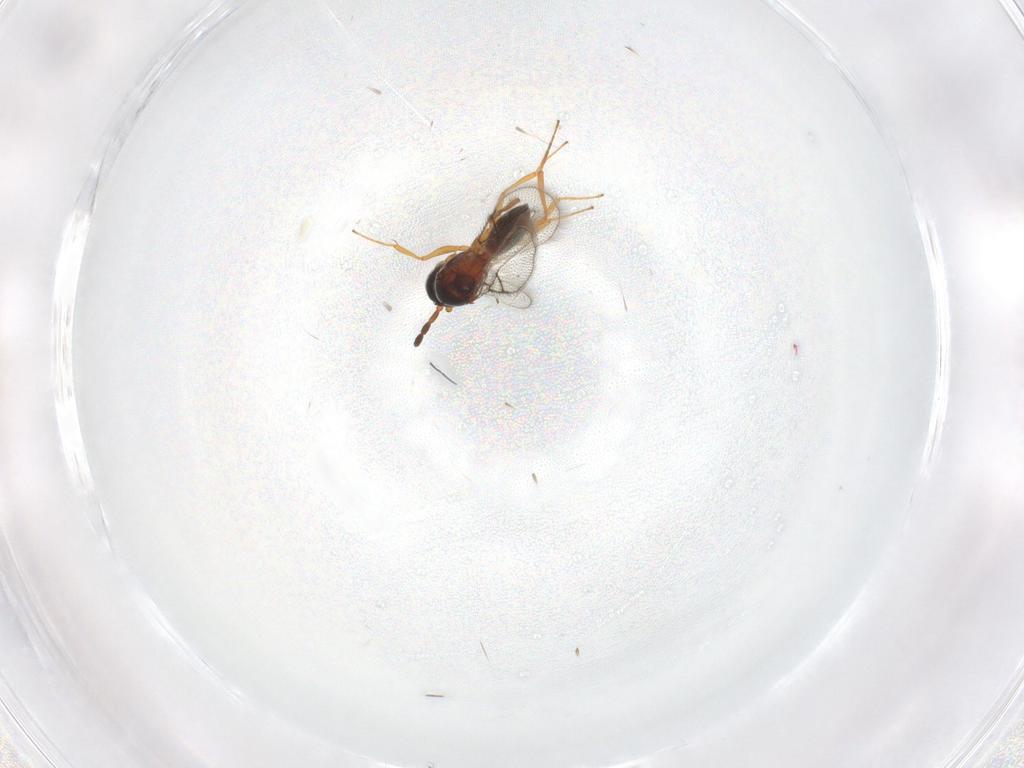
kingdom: Animalia
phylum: Arthropoda
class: Insecta
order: Hymenoptera
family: Figitidae
